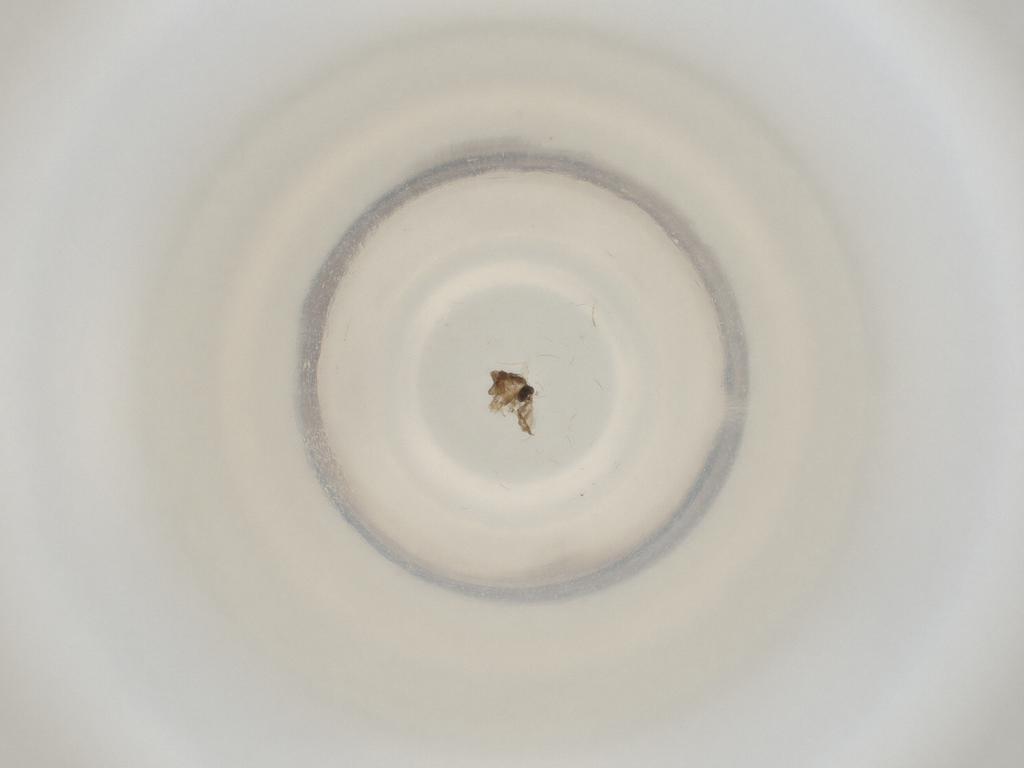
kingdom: Animalia
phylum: Arthropoda
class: Insecta
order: Diptera
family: Cecidomyiidae
